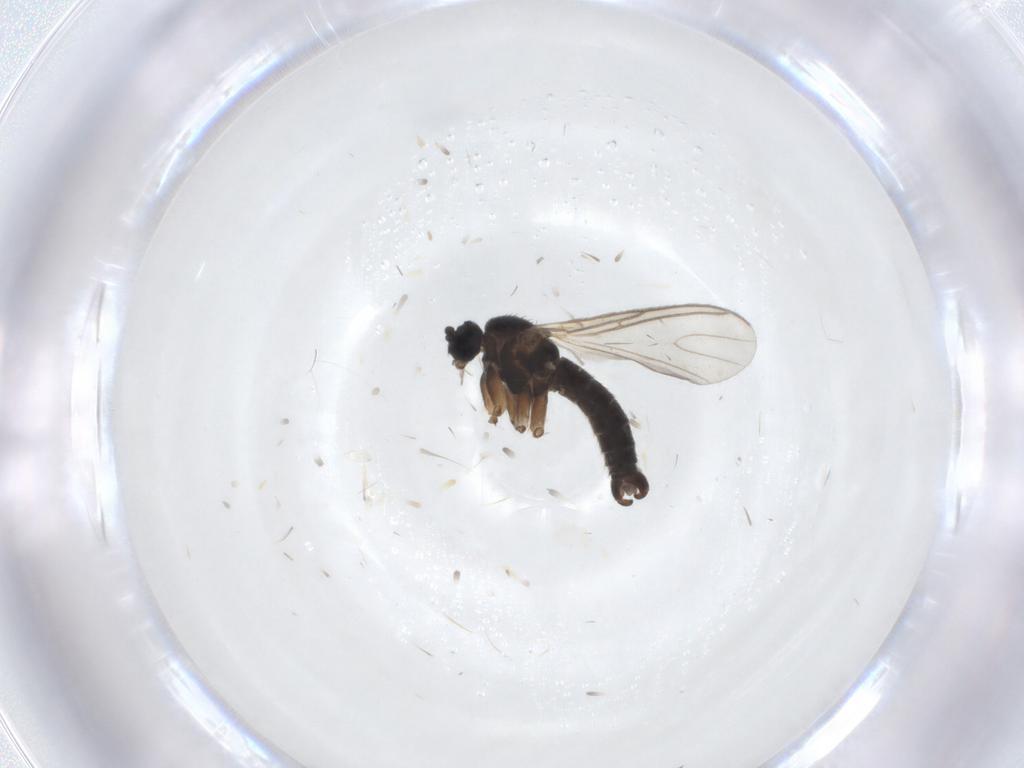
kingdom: Animalia
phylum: Arthropoda
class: Insecta
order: Diptera
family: Sciaridae
